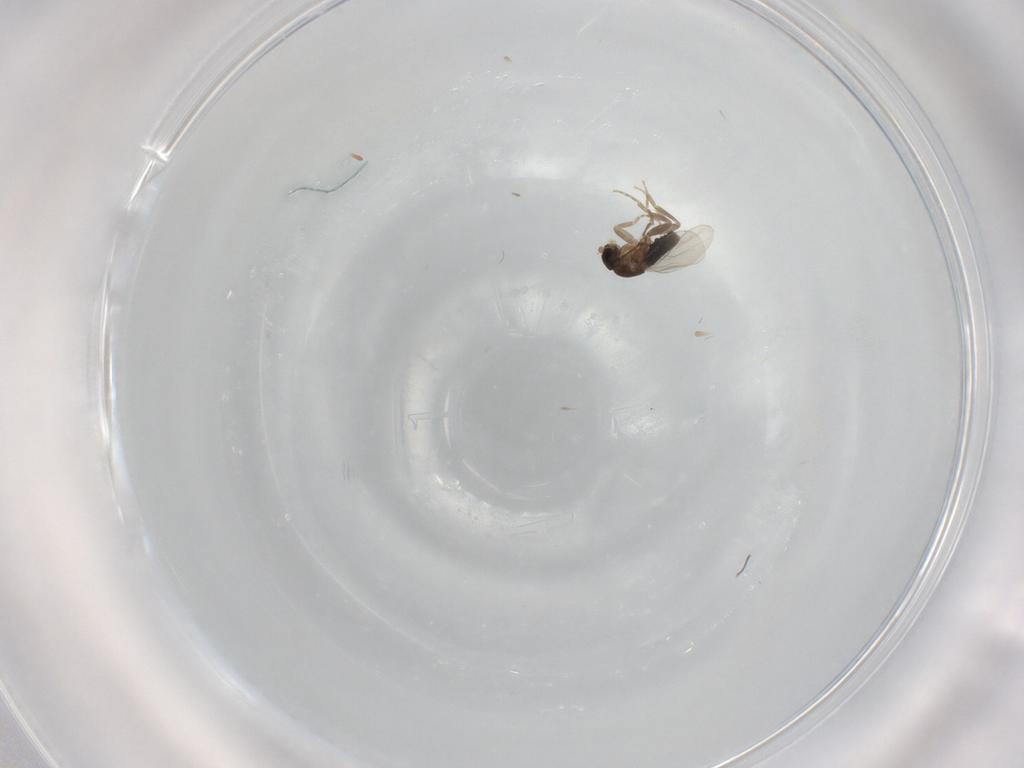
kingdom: Animalia
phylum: Arthropoda
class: Insecta
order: Diptera
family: Phoridae
